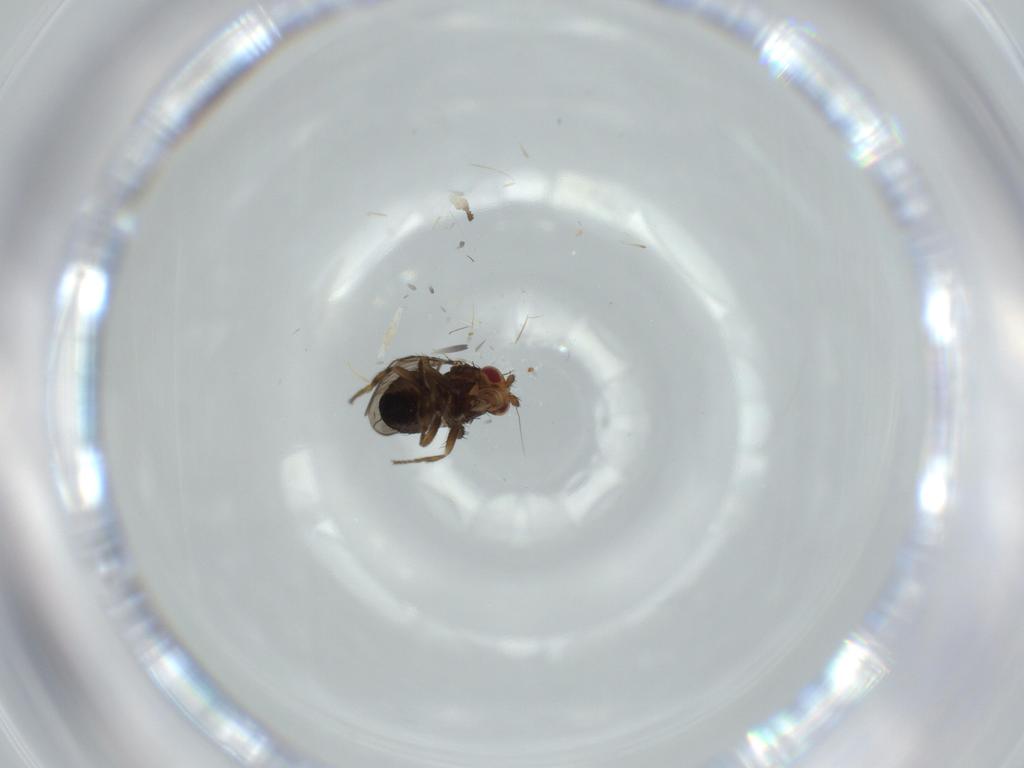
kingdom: Animalia
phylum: Arthropoda
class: Insecta
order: Diptera
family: Sphaeroceridae
